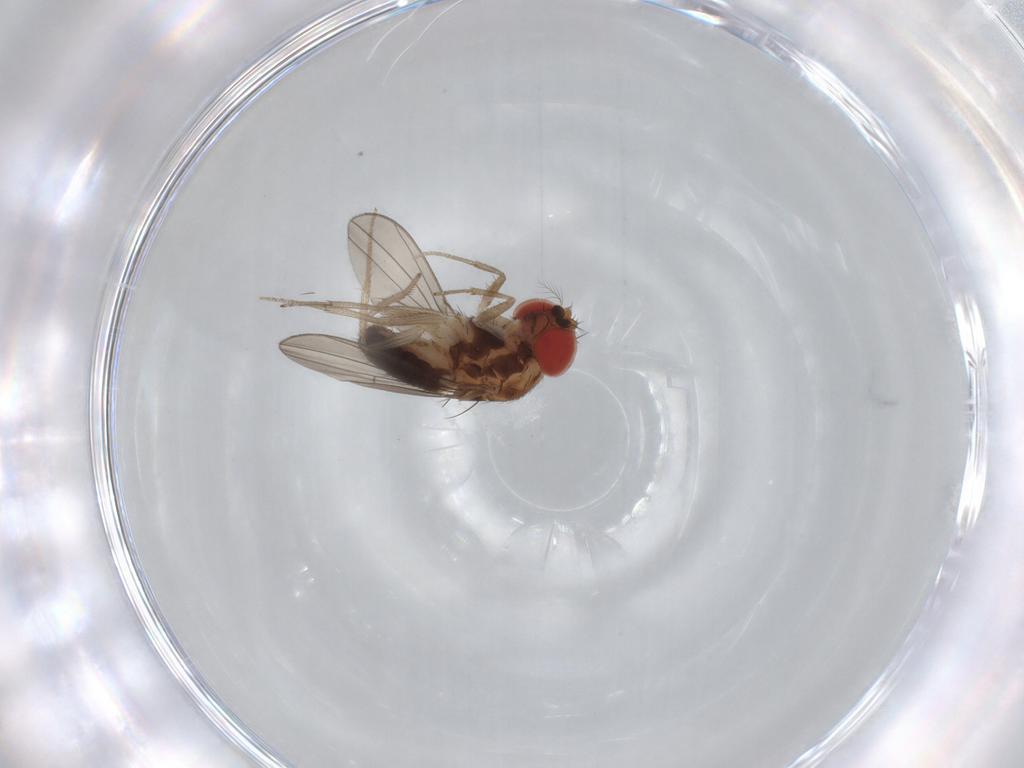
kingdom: Animalia
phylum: Arthropoda
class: Insecta
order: Diptera
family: Drosophilidae
